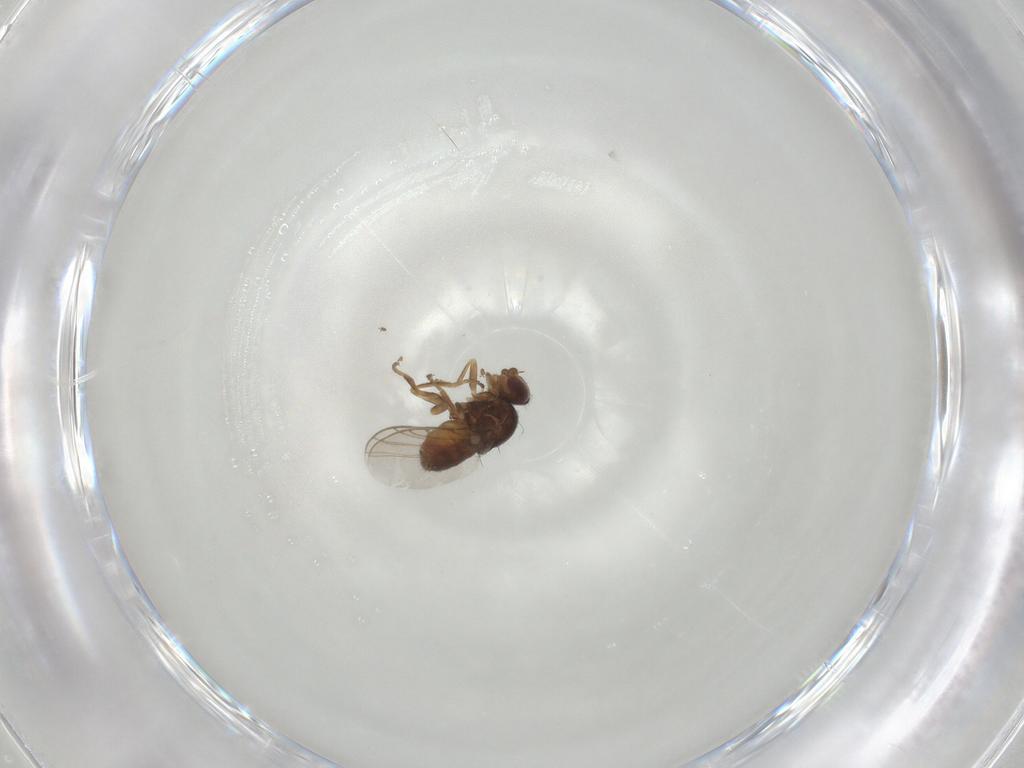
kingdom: Animalia
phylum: Arthropoda
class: Insecta
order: Diptera
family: Chloropidae
